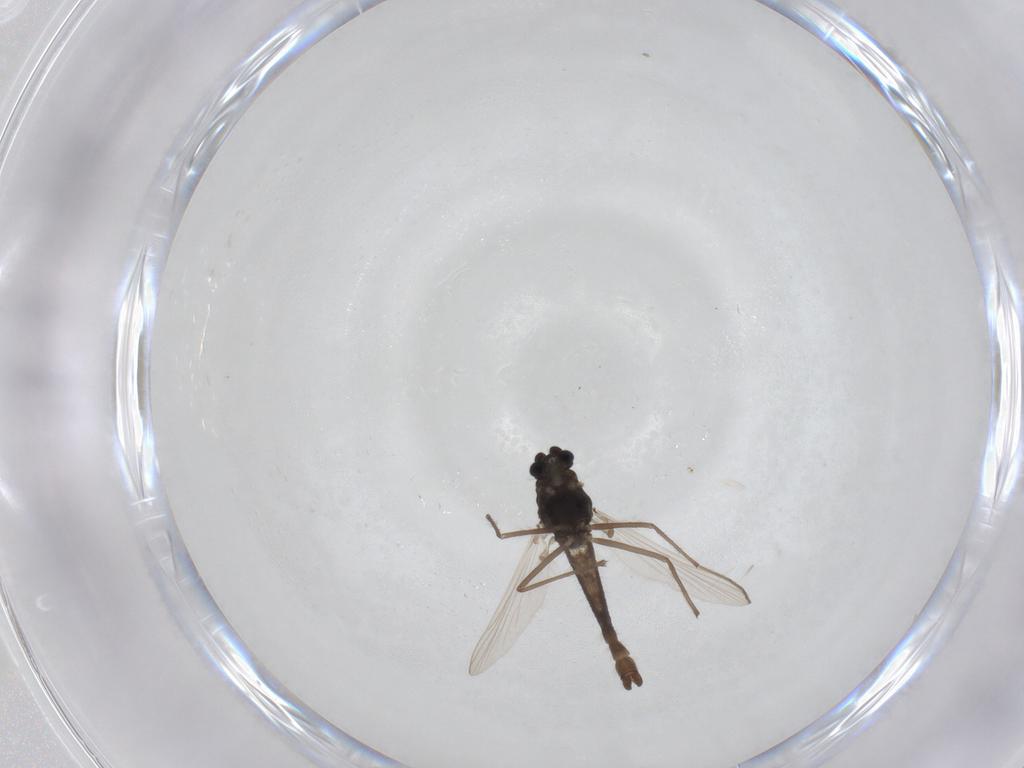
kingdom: Animalia
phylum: Arthropoda
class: Insecta
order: Diptera
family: Chironomidae
